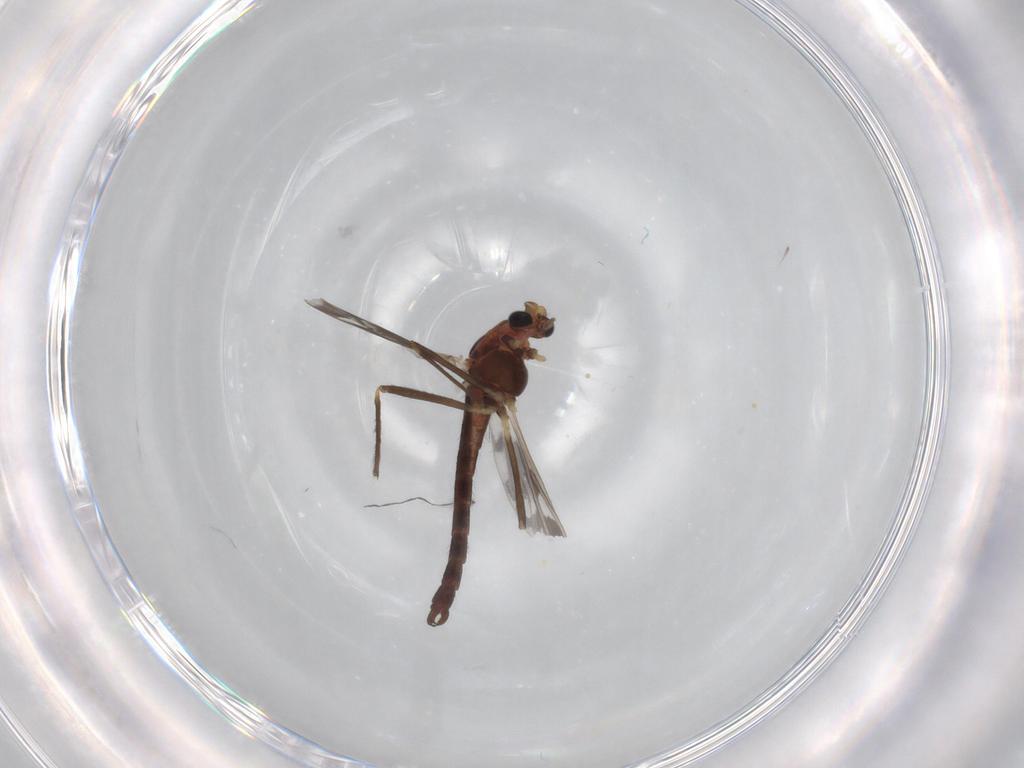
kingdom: Animalia
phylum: Arthropoda
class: Insecta
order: Diptera
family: Chironomidae
